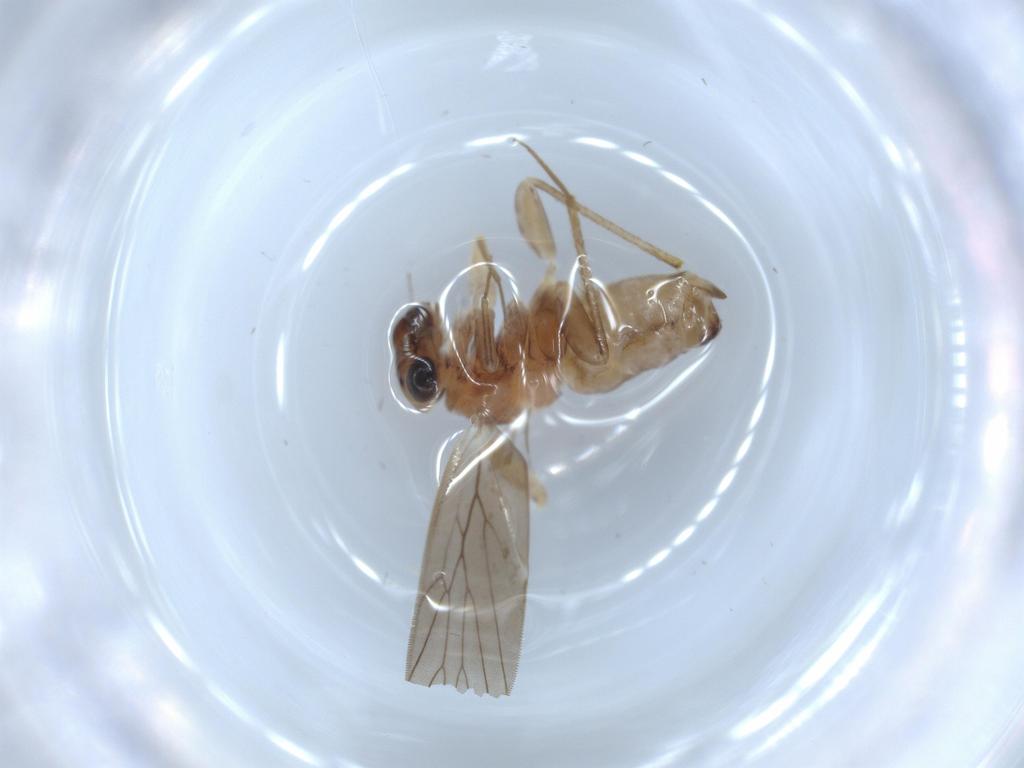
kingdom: Animalia
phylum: Arthropoda
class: Insecta
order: Psocodea
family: Lepidopsocidae
